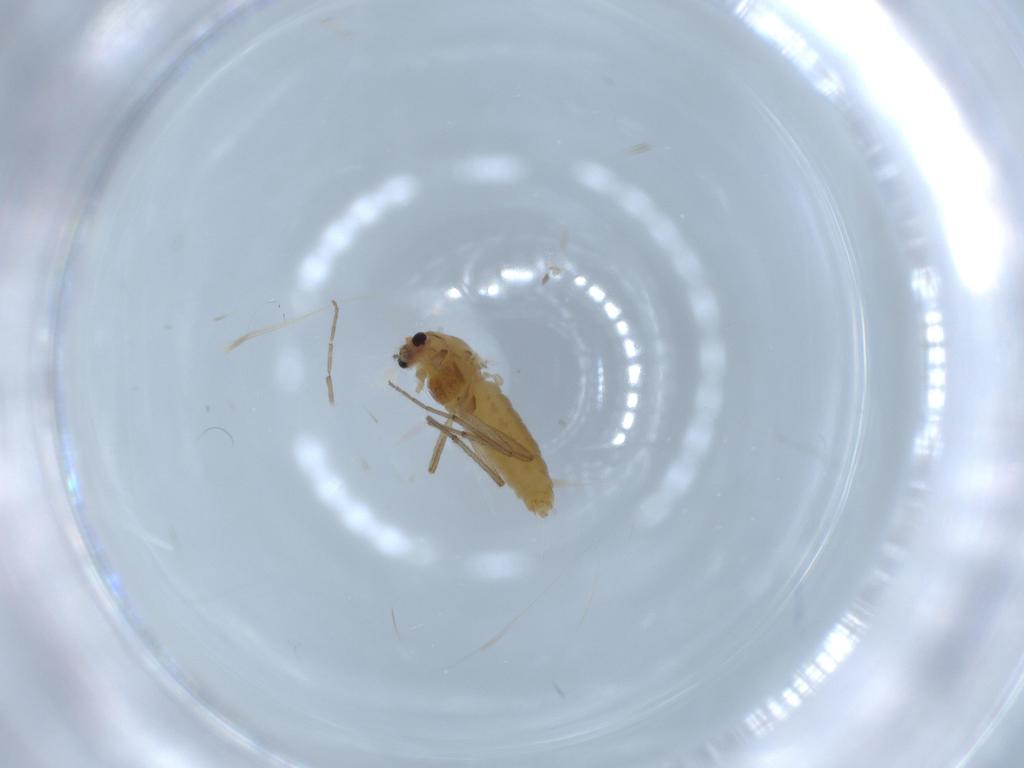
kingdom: Animalia
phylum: Arthropoda
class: Insecta
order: Diptera
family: Chironomidae
